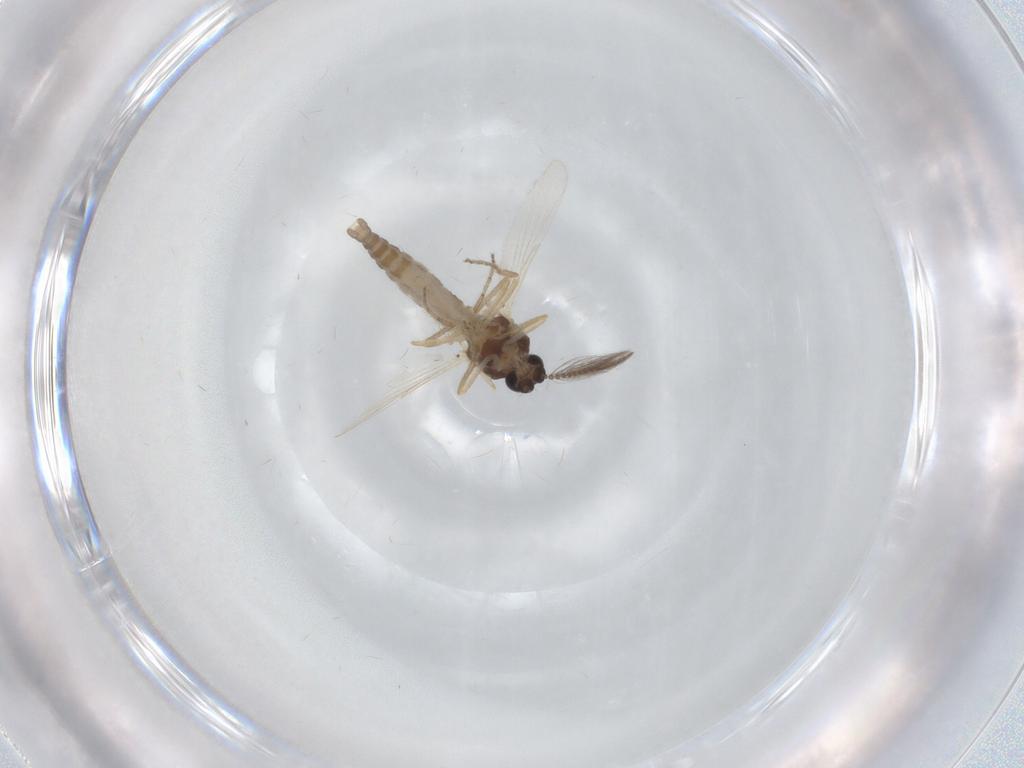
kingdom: Animalia
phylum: Arthropoda
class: Insecta
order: Diptera
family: Ceratopogonidae
